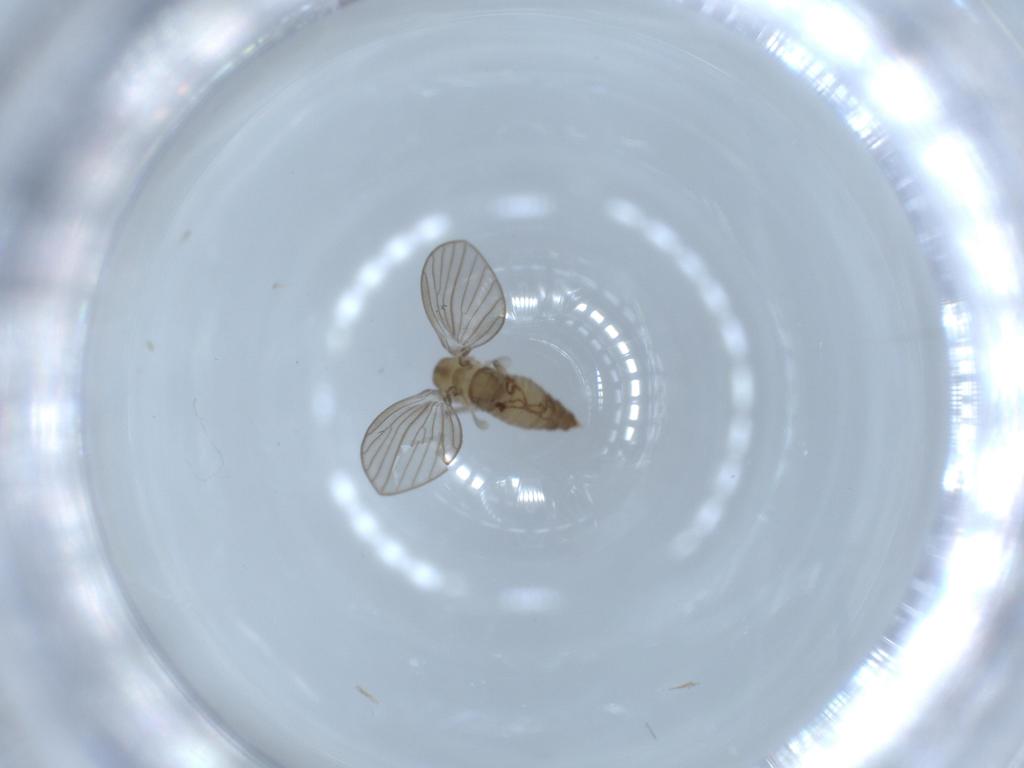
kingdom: Animalia
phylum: Arthropoda
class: Insecta
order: Diptera
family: Psychodidae
